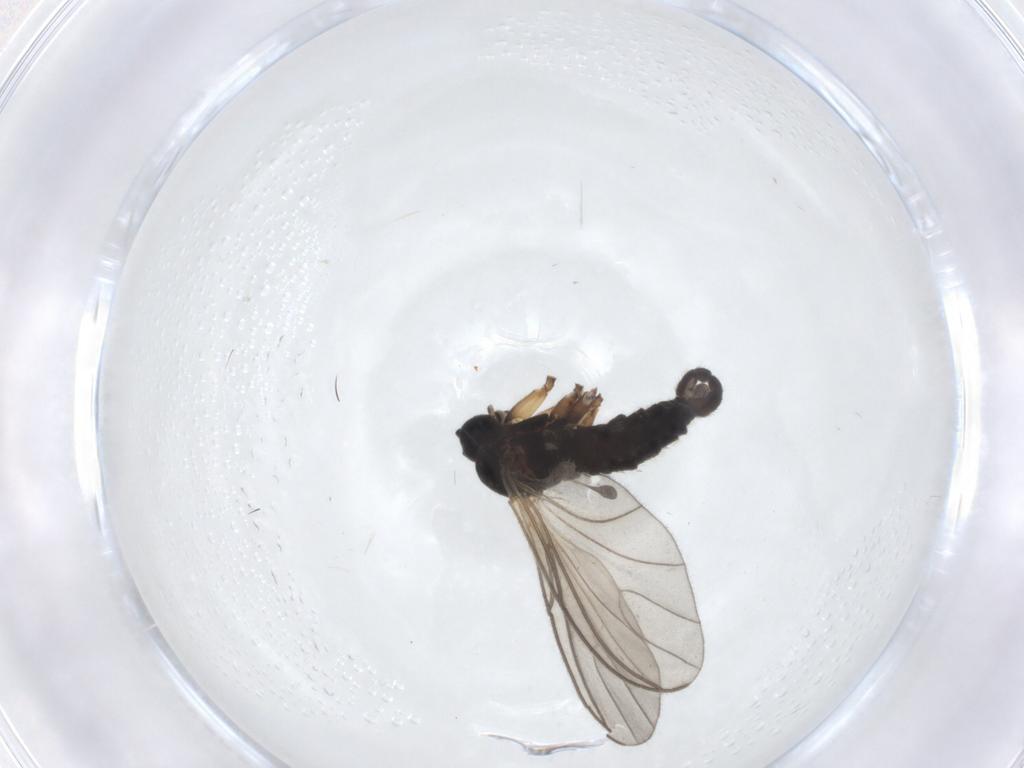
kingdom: Animalia
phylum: Arthropoda
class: Insecta
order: Diptera
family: Sciaridae
